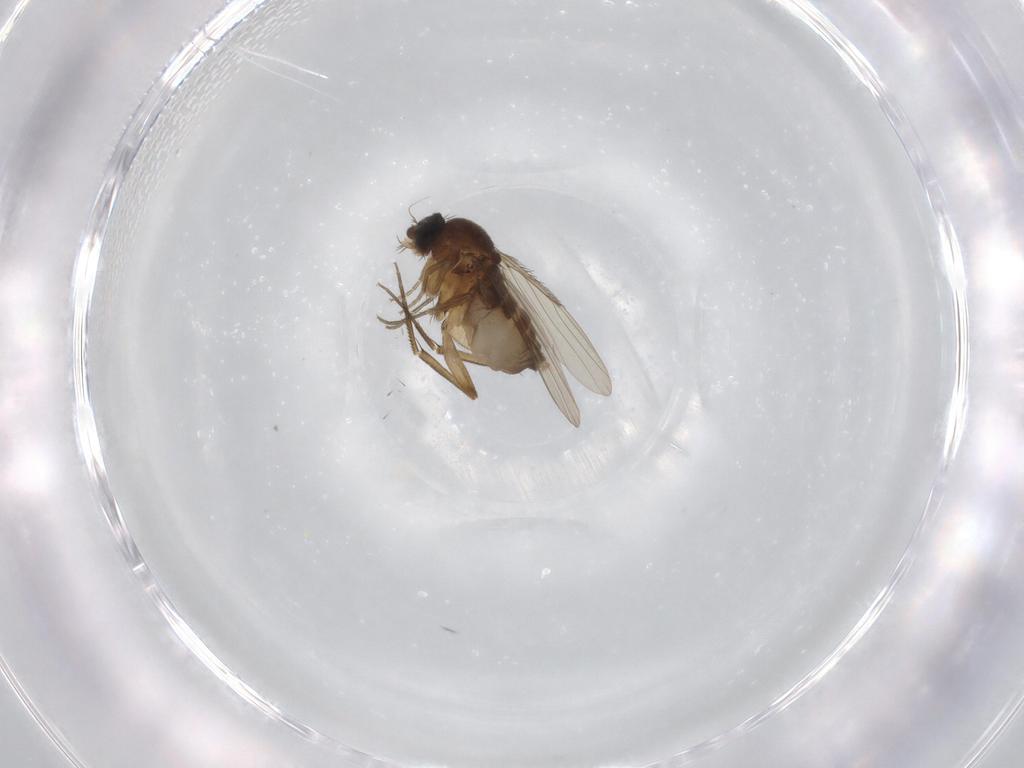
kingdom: Animalia
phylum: Arthropoda
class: Insecta
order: Diptera
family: Phoridae
